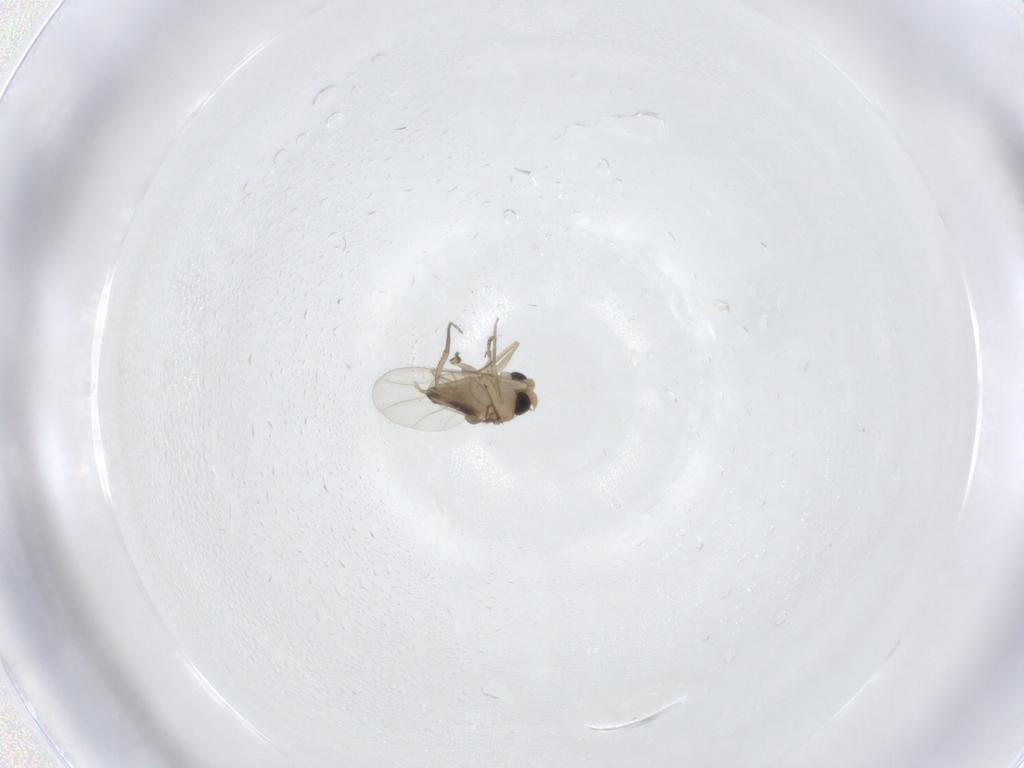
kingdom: Animalia
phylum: Arthropoda
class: Insecta
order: Diptera
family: Phoridae
